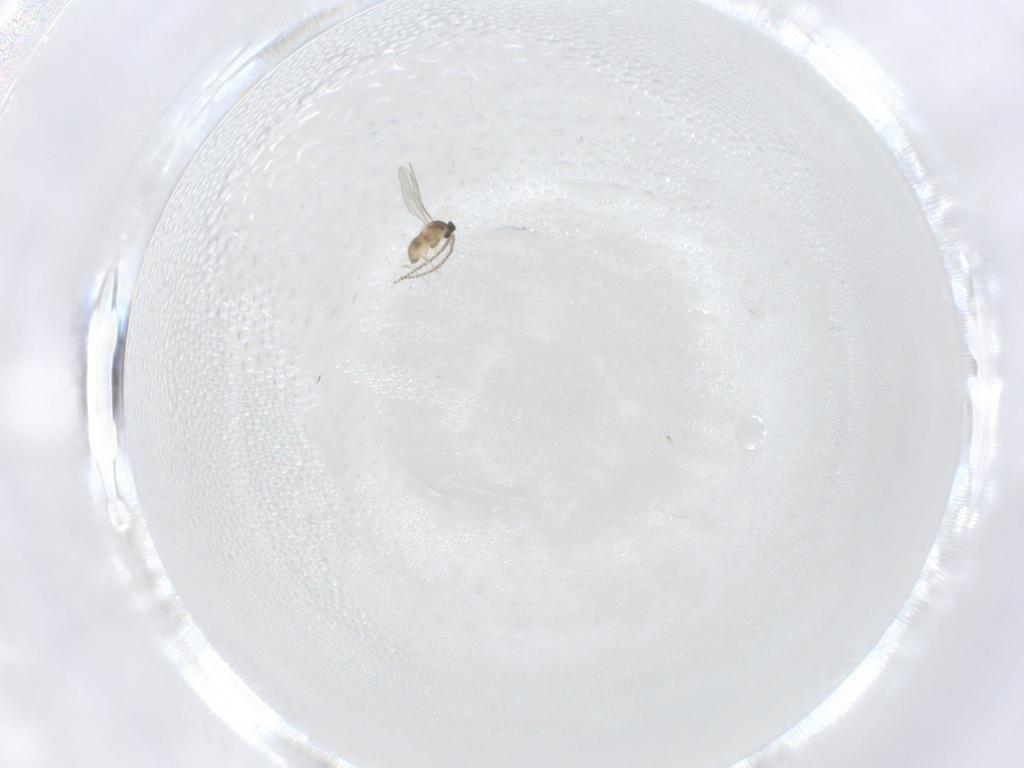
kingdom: Animalia
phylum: Arthropoda
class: Insecta
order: Diptera
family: Cecidomyiidae
